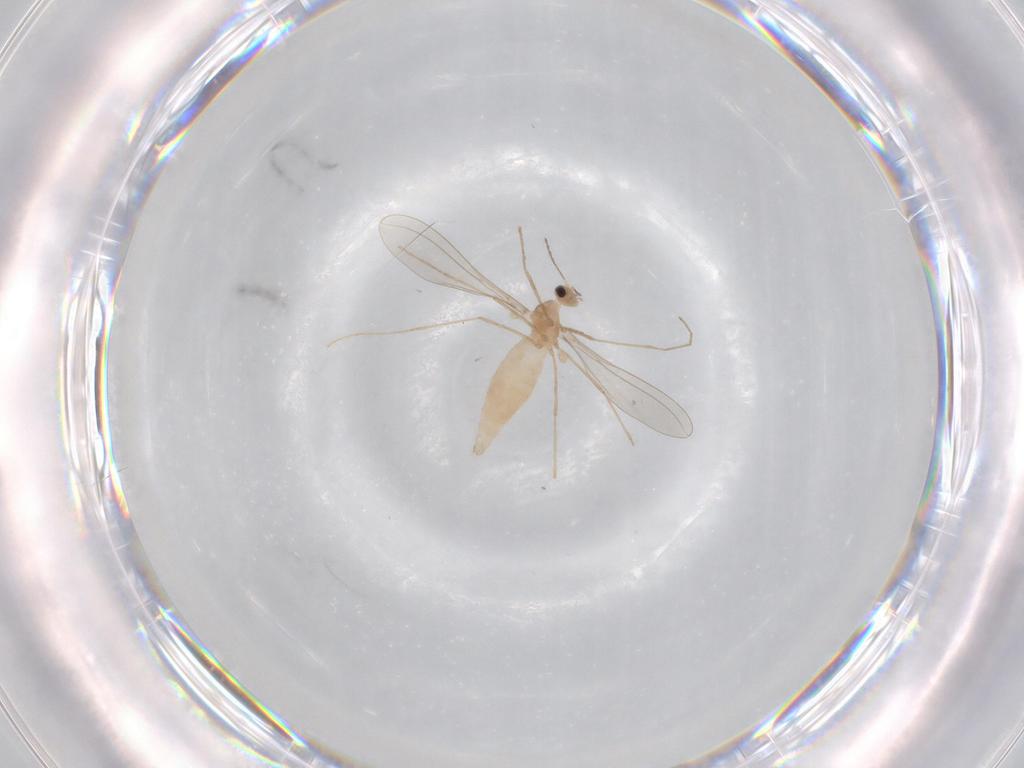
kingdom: Animalia
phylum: Arthropoda
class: Insecta
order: Diptera
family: Cecidomyiidae
